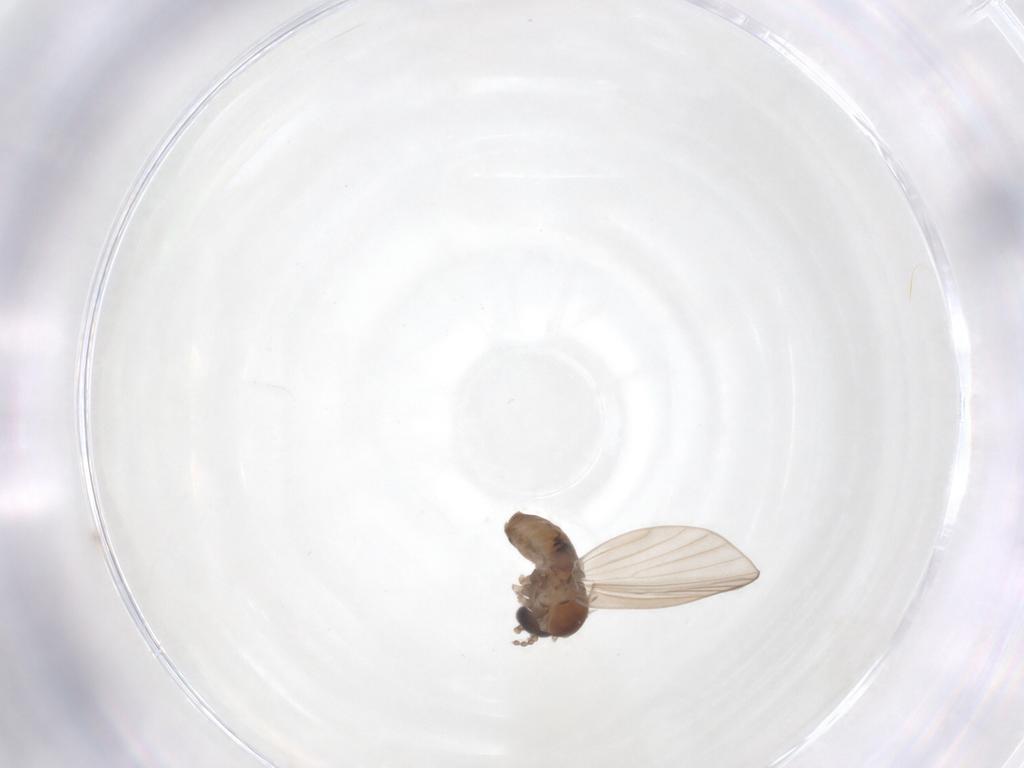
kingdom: Animalia
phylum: Arthropoda
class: Insecta
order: Diptera
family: Psychodidae
